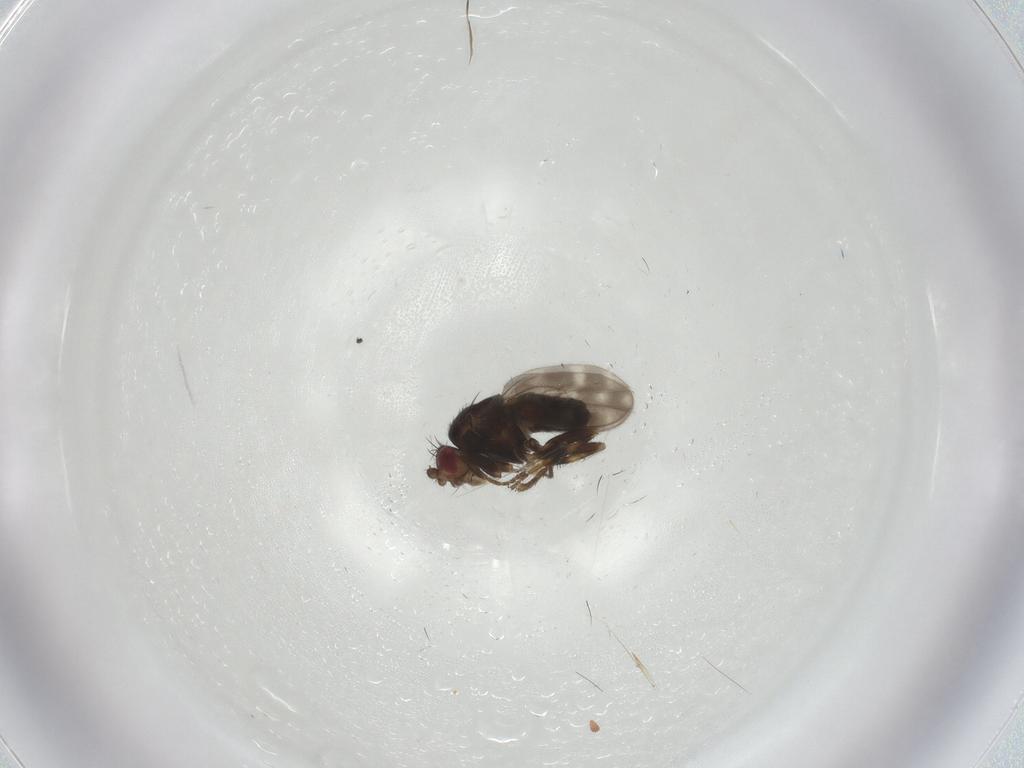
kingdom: Animalia
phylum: Arthropoda
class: Insecta
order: Diptera
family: Sphaeroceridae
